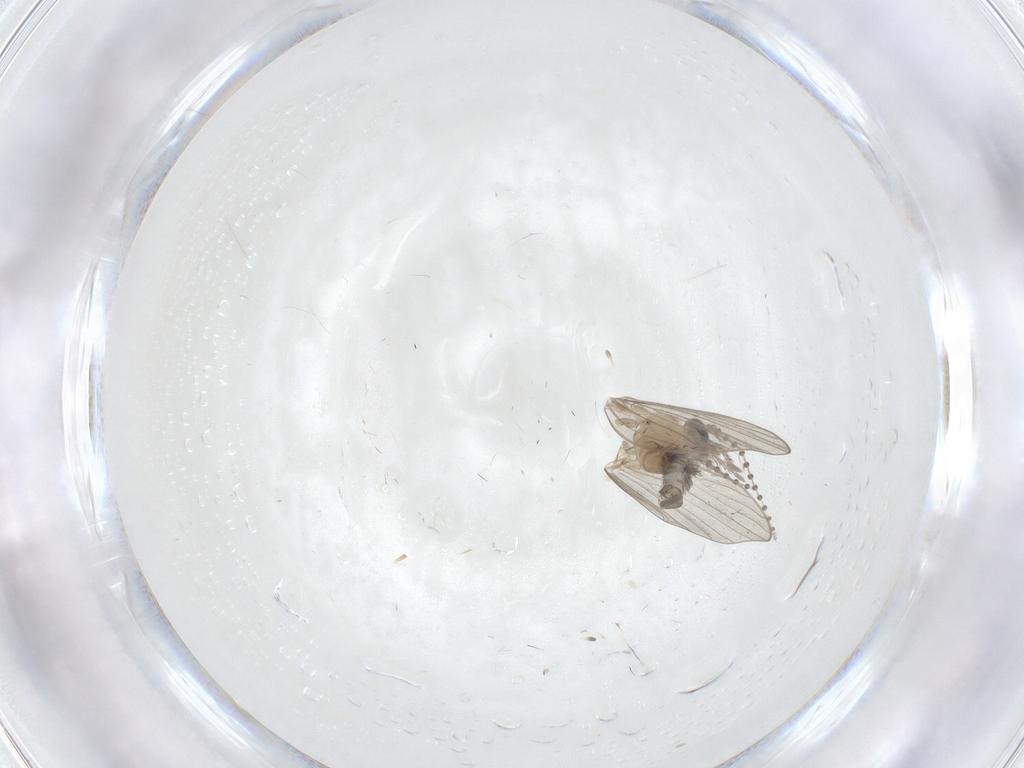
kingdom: Animalia
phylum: Arthropoda
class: Insecta
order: Diptera
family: Psychodidae
